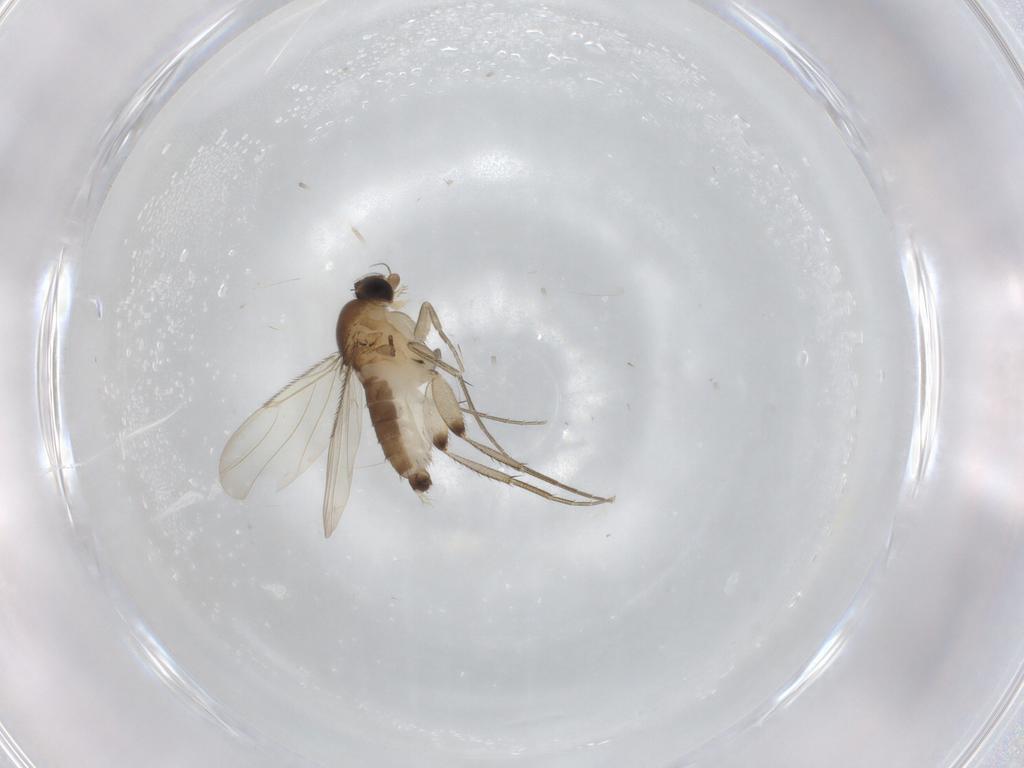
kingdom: Animalia
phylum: Arthropoda
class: Insecta
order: Diptera
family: Phoridae
